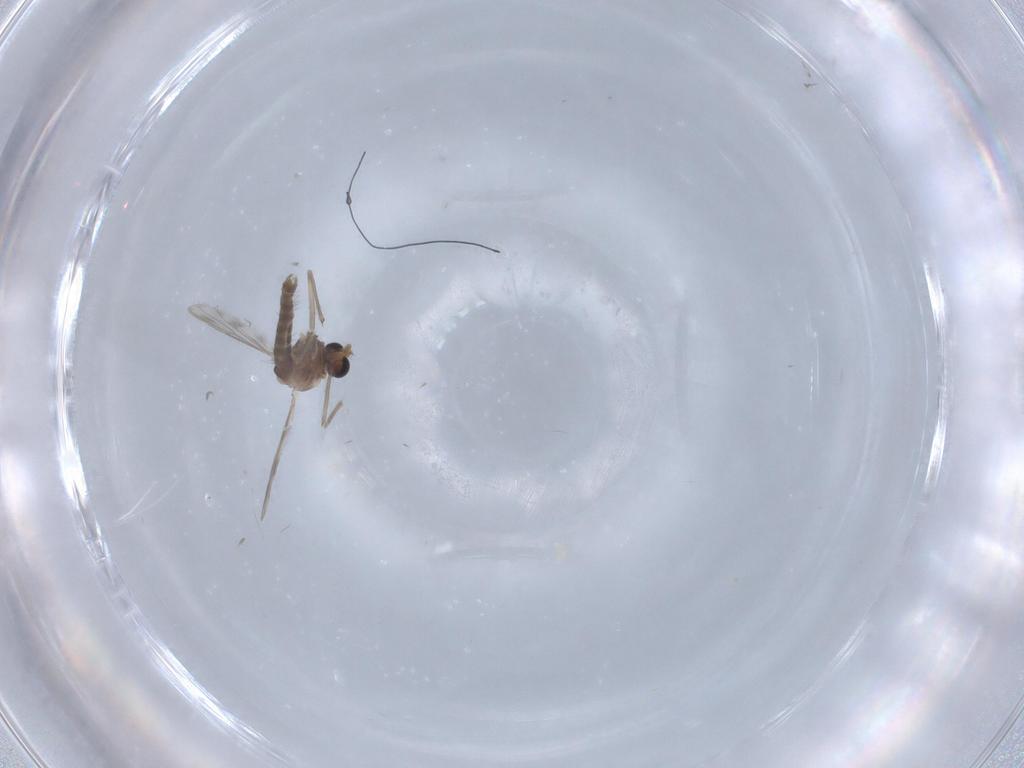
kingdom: Animalia
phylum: Arthropoda
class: Insecta
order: Diptera
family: Chironomidae
